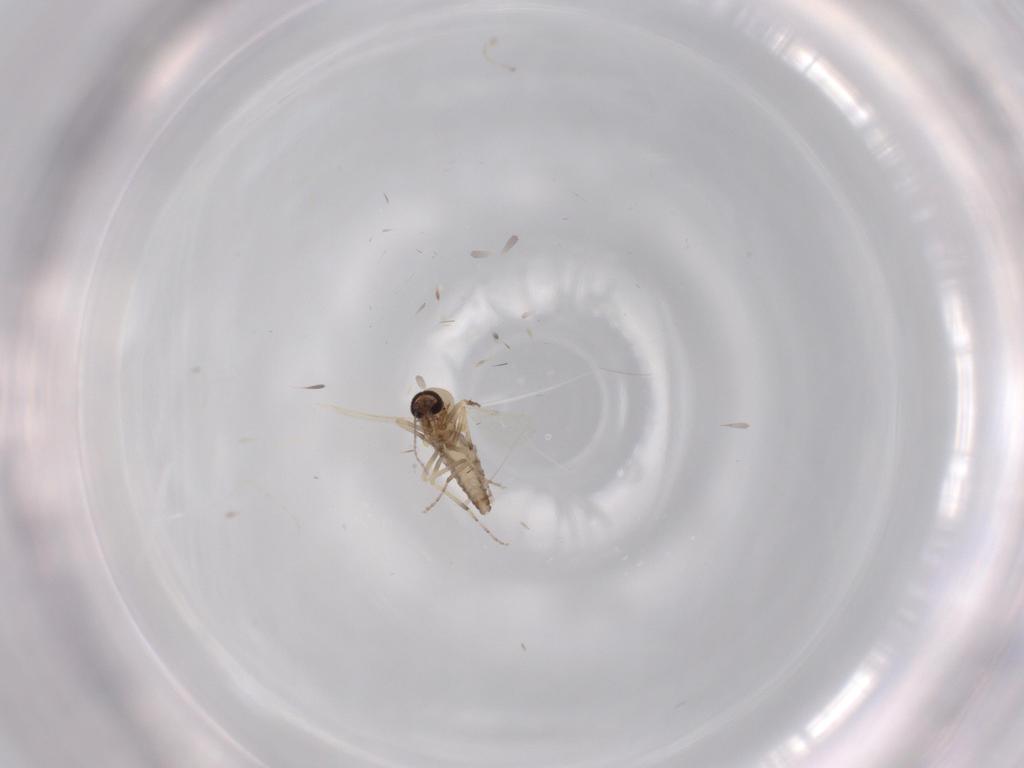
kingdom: Animalia
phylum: Arthropoda
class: Insecta
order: Diptera
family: Ceratopogonidae
